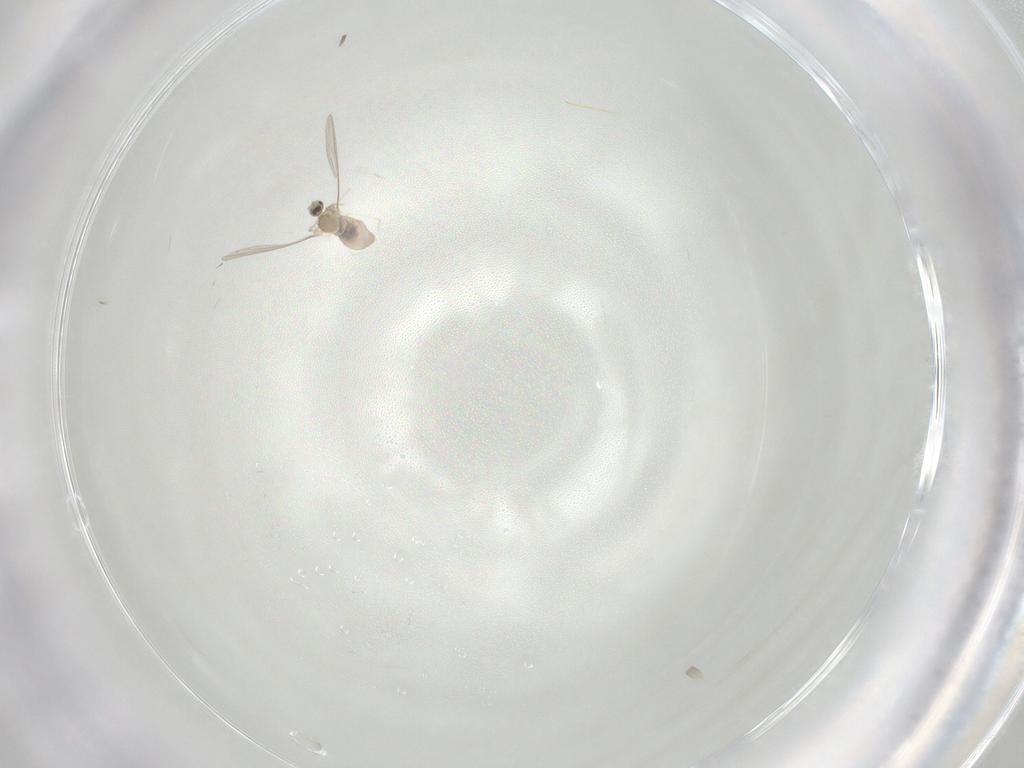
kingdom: Animalia
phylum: Arthropoda
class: Insecta
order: Diptera
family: Cecidomyiidae
